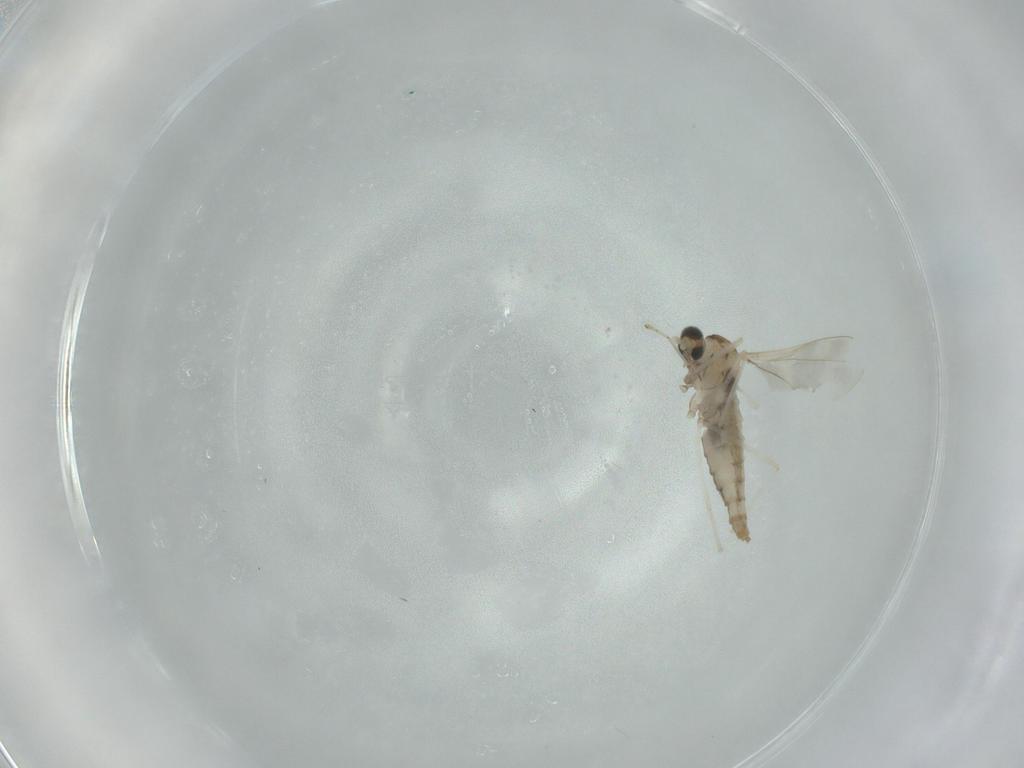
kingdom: Animalia
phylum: Arthropoda
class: Insecta
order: Diptera
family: Cecidomyiidae
